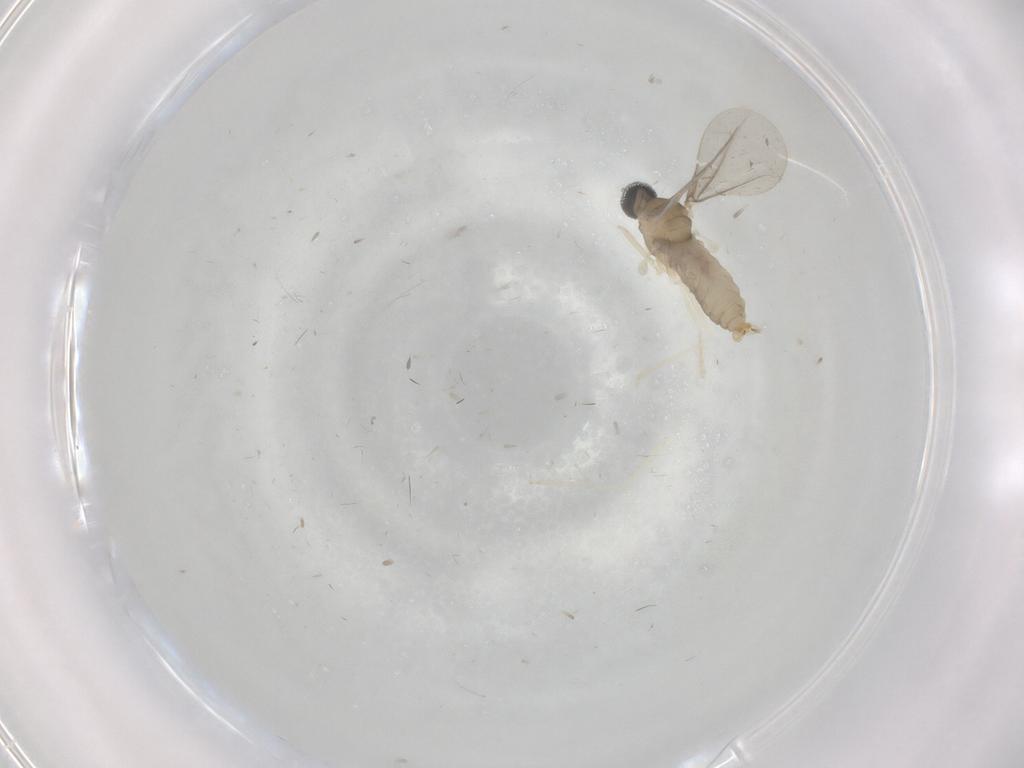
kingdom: Animalia
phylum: Arthropoda
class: Insecta
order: Diptera
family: Cecidomyiidae
